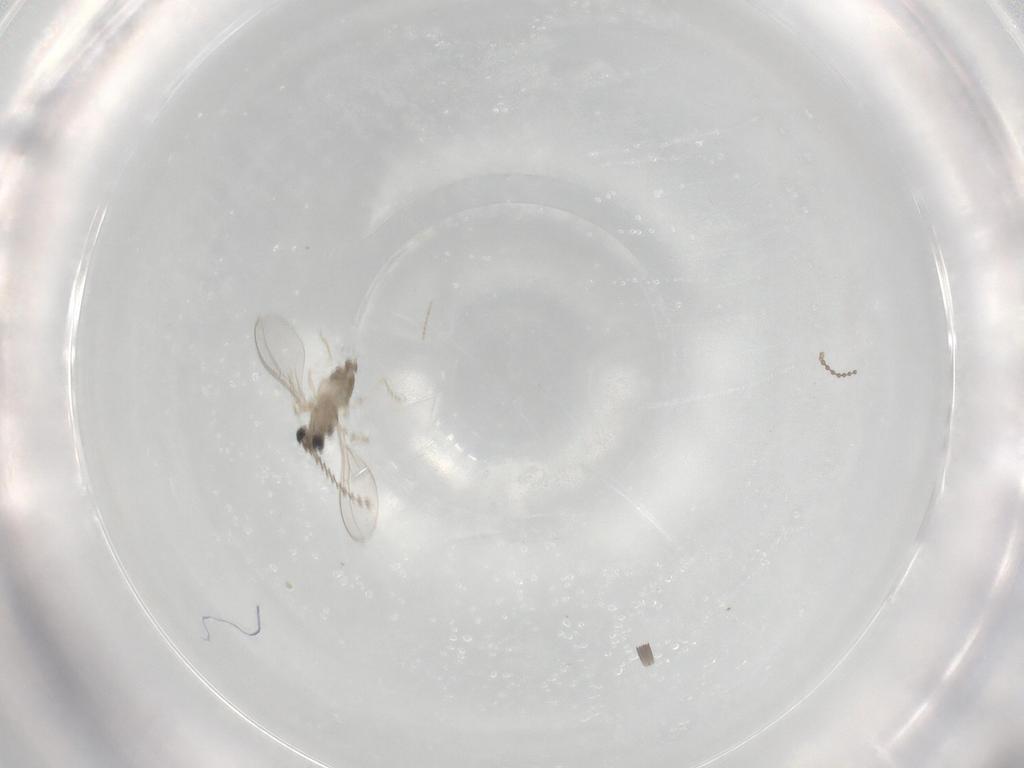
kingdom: Animalia
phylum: Arthropoda
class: Insecta
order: Diptera
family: Cecidomyiidae
